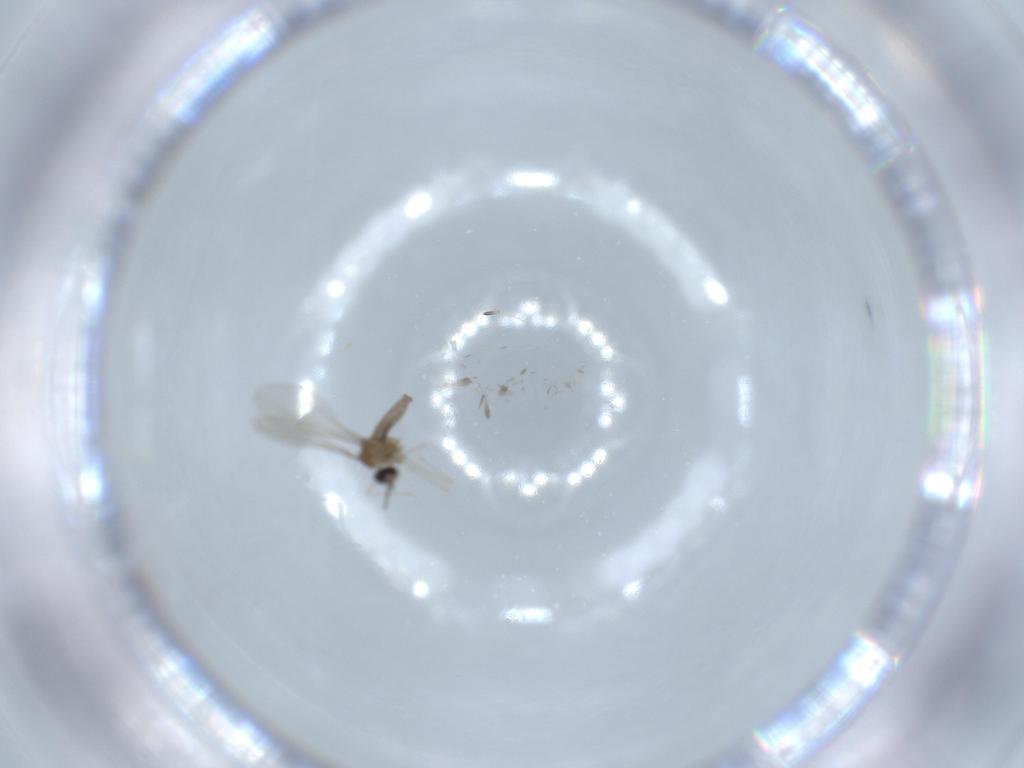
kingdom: Animalia
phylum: Arthropoda
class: Insecta
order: Diptera
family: Cecidomyiidae
